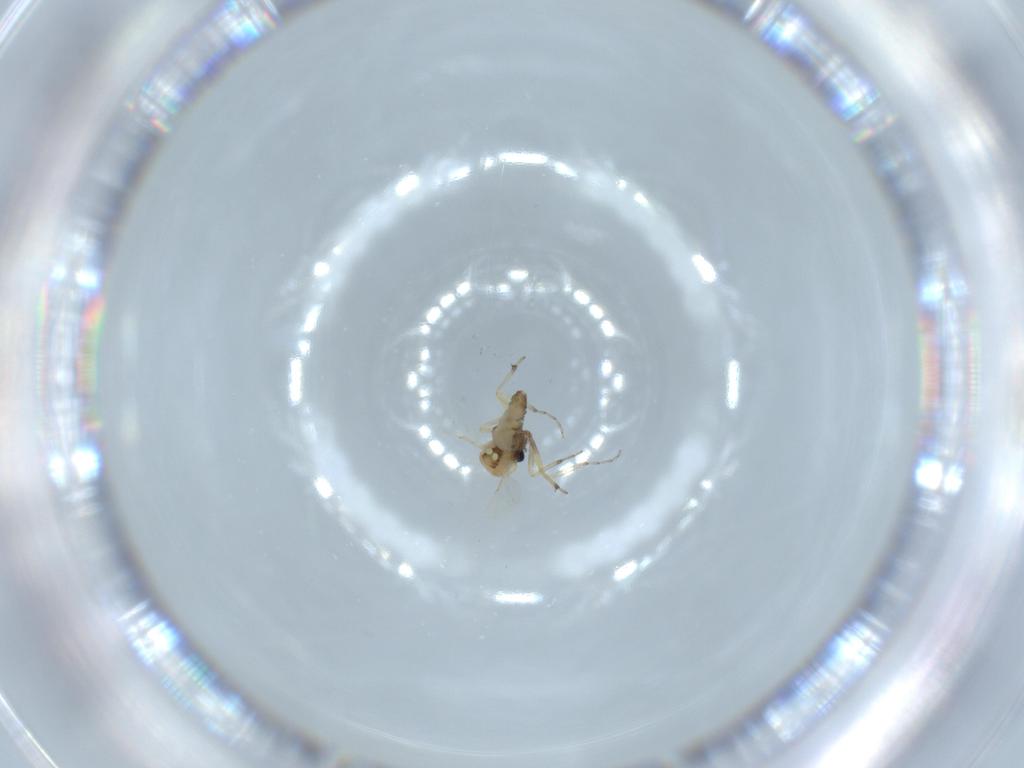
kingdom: Animalia
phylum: Arthropoda
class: Insecta
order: Diptera
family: Ceratopogonidae
